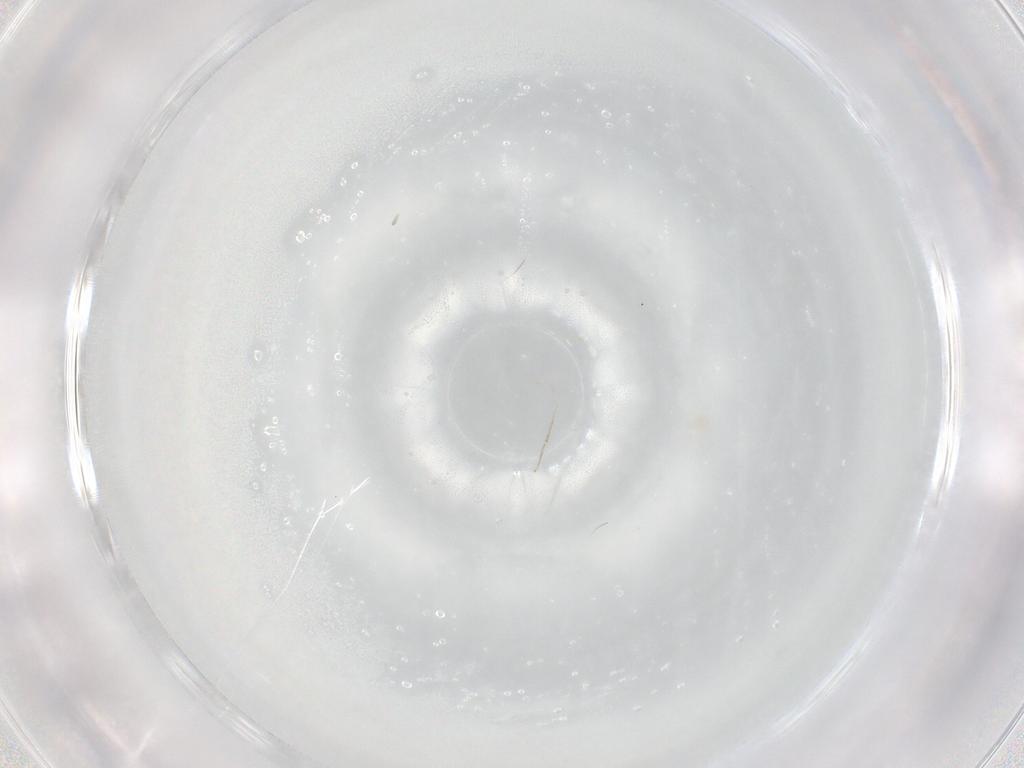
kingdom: Animalia
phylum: Arthropoda
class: Insecta
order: Diptera
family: Cecidomyiidae
